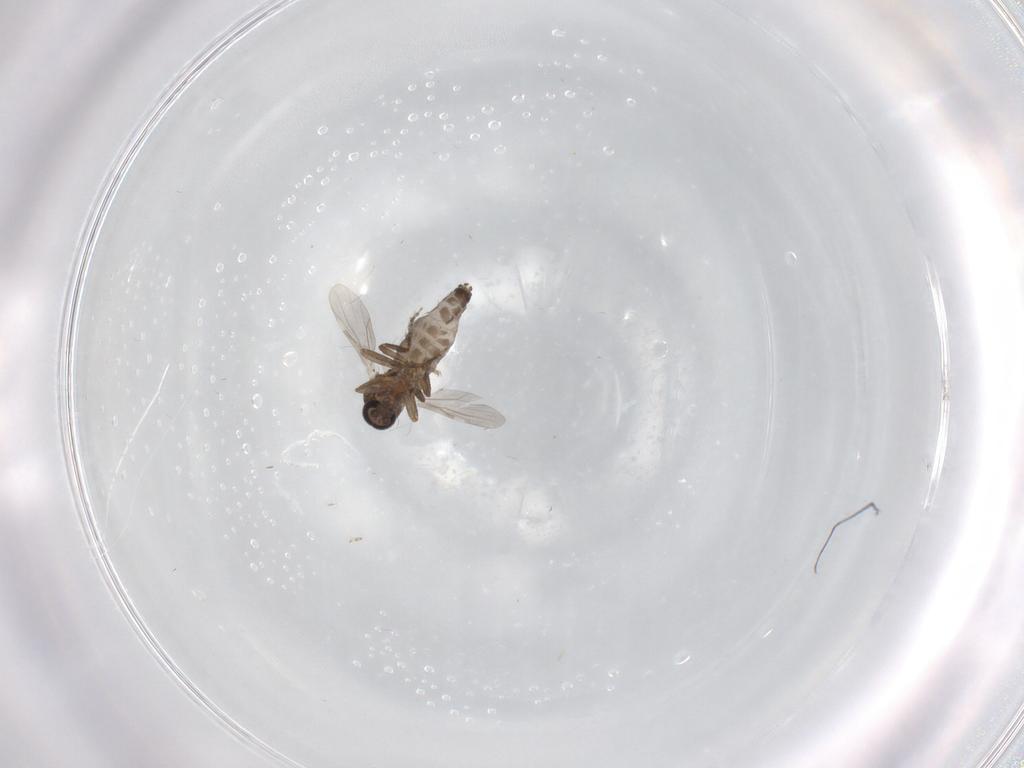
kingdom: Animalia
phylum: Arthropoda
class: Insecta
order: Diptera
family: Ceratopogonidae
